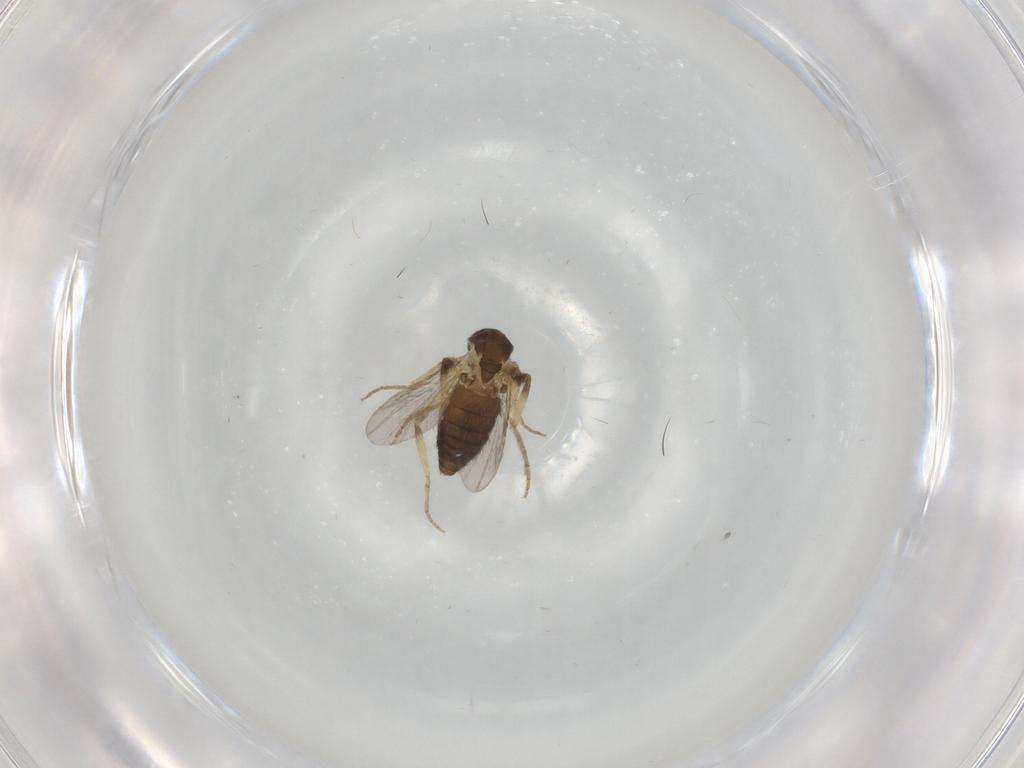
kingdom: Animalia
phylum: Arthropoda
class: Insecta
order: Diptera
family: Ceratopogonidae
